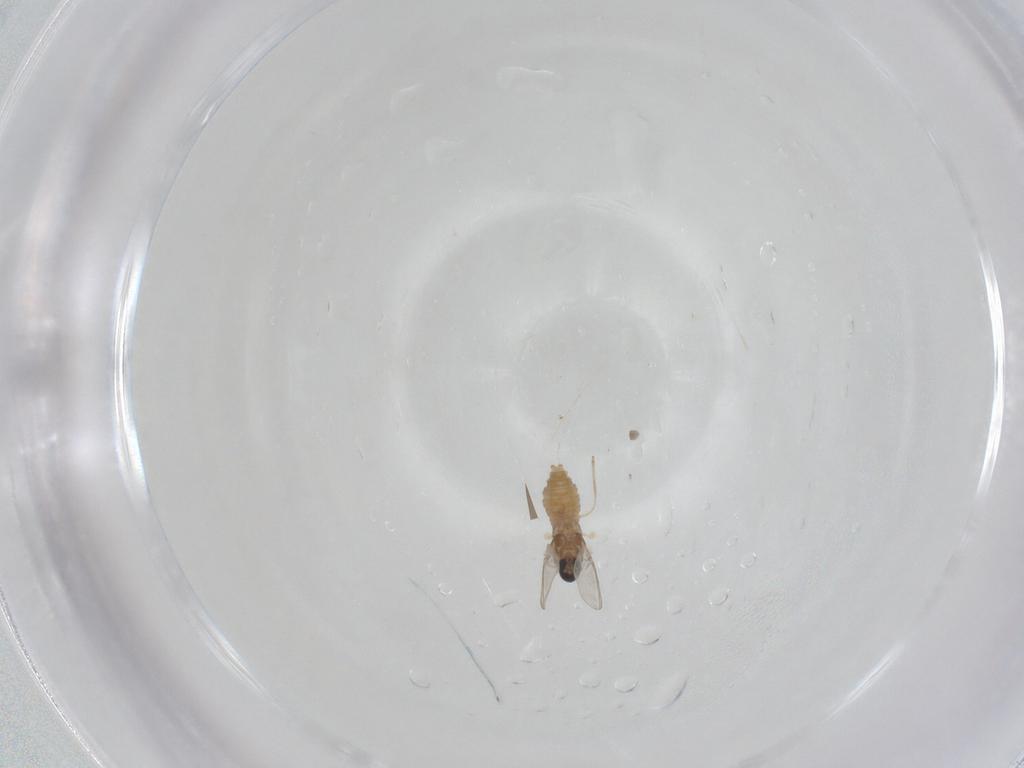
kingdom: Animalia
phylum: Arthropoda
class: Insecta
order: Diptera
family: Cecidomyiidae
